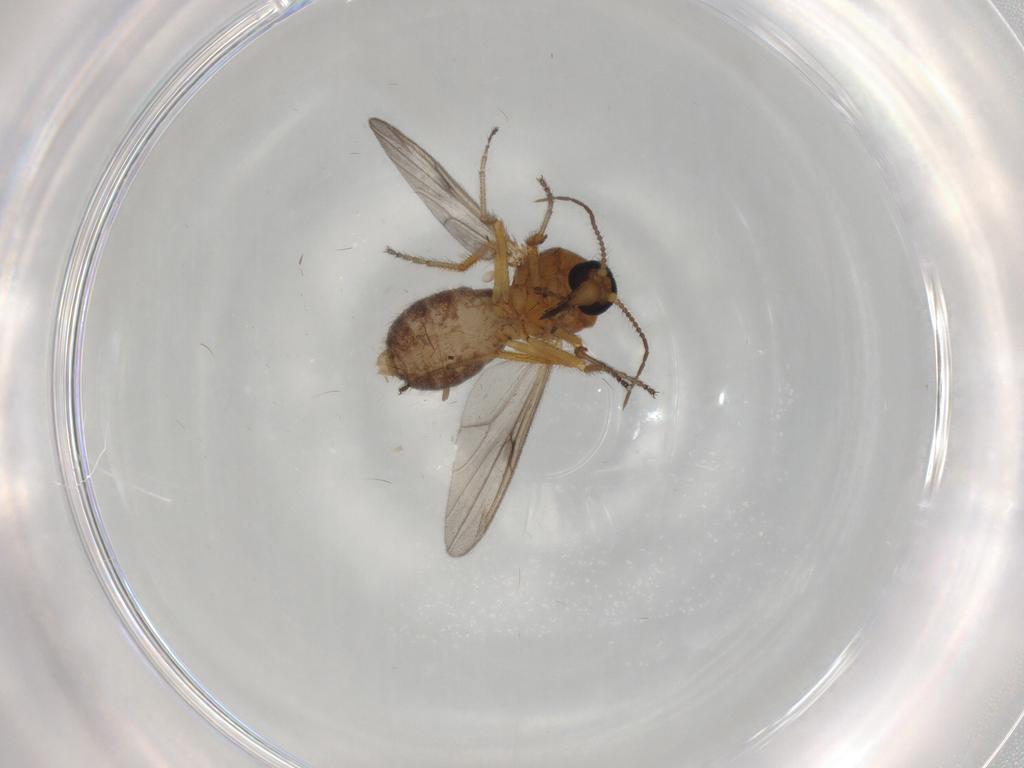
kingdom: Animalia
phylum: Arthropoda
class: Insecta
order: Diptera
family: Ceratopogonidae
